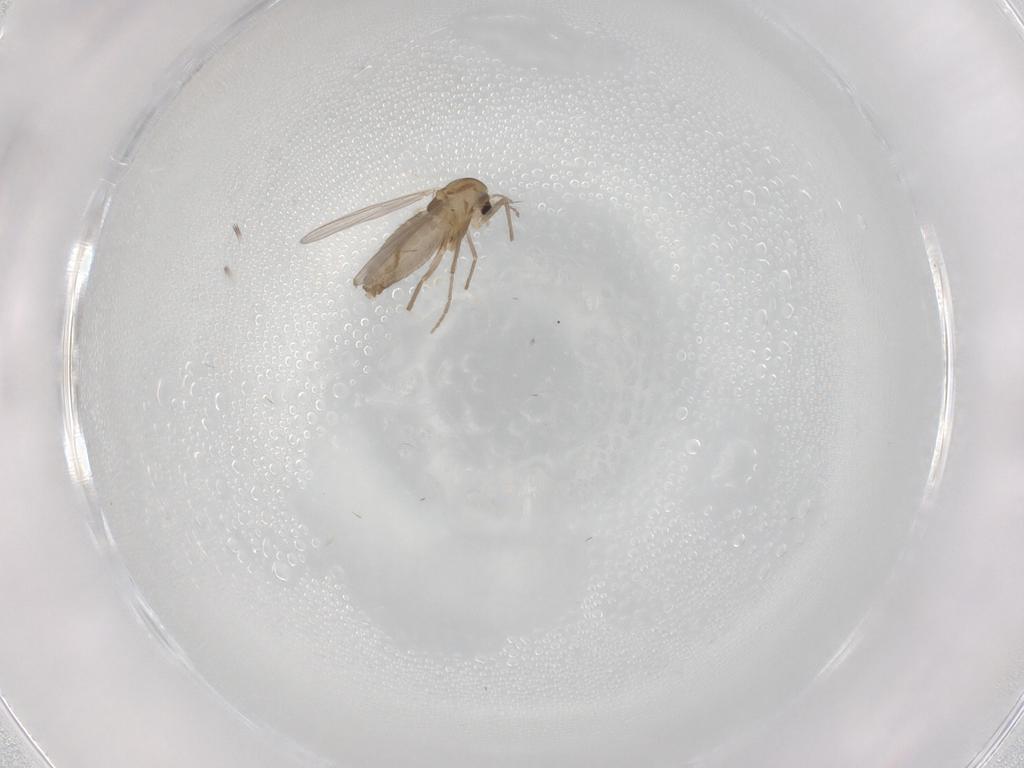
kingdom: Animalia
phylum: Arthropoda
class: Insecta
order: Diptera
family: Chironomidae
